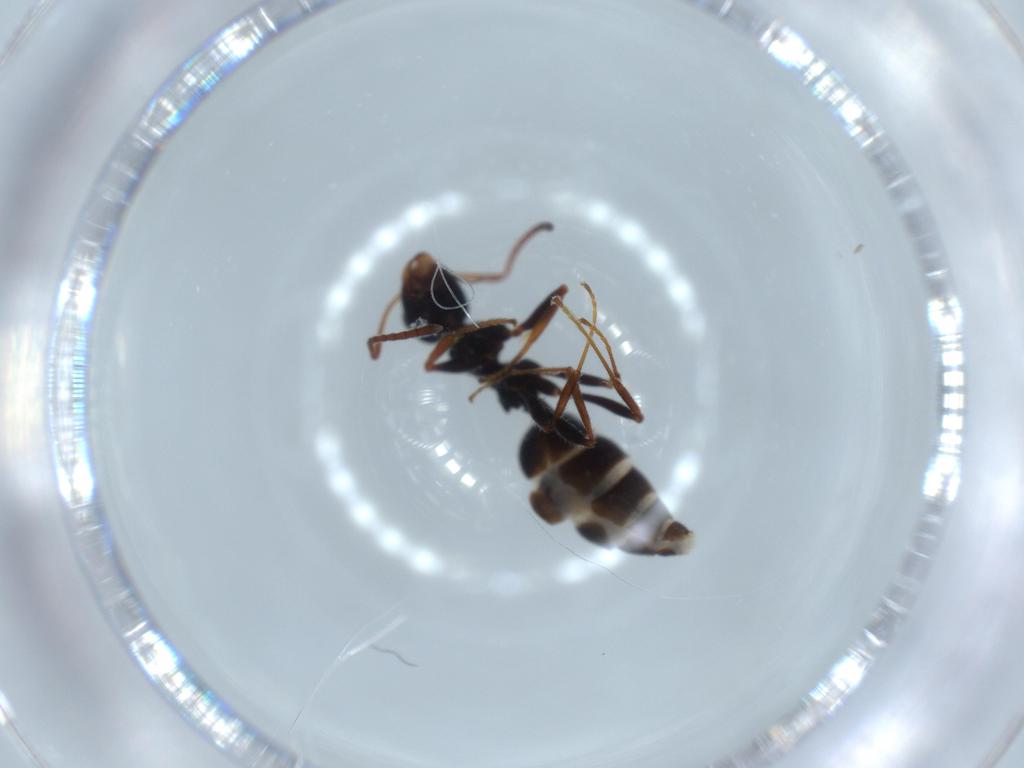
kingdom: Animalia
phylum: Arthropoda
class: Insecta
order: Hymenoptera
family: Formicidae
